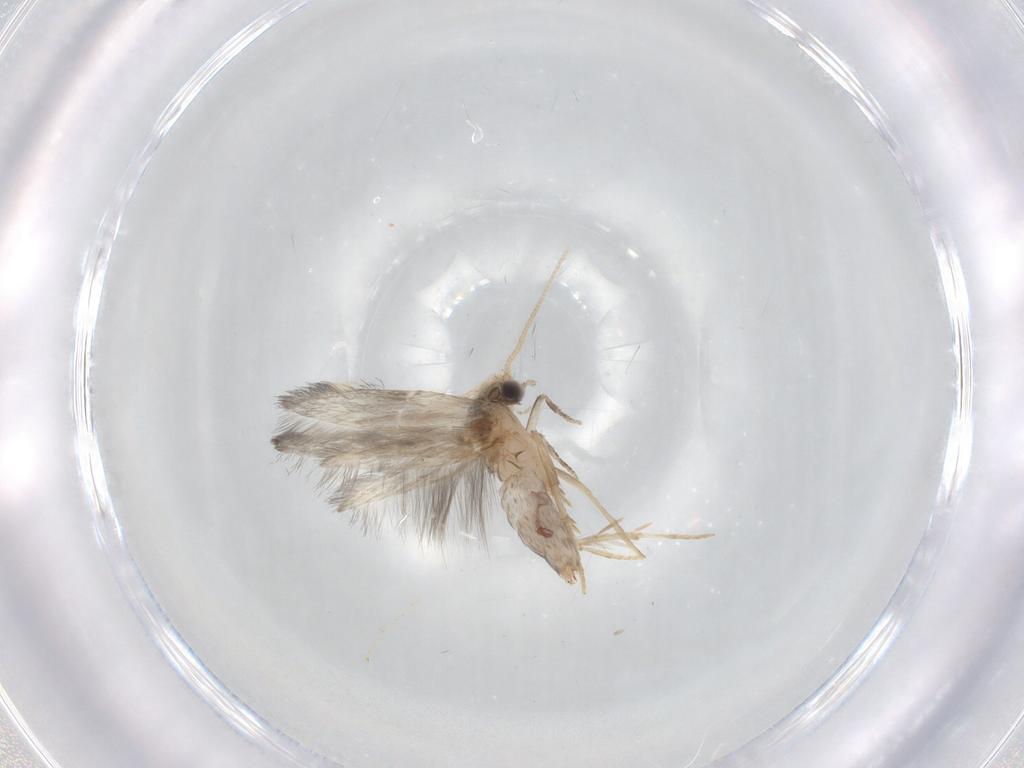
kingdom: Animalia
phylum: Arthropoda
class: Insecta
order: Trichoptera
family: Hydroptilidae
